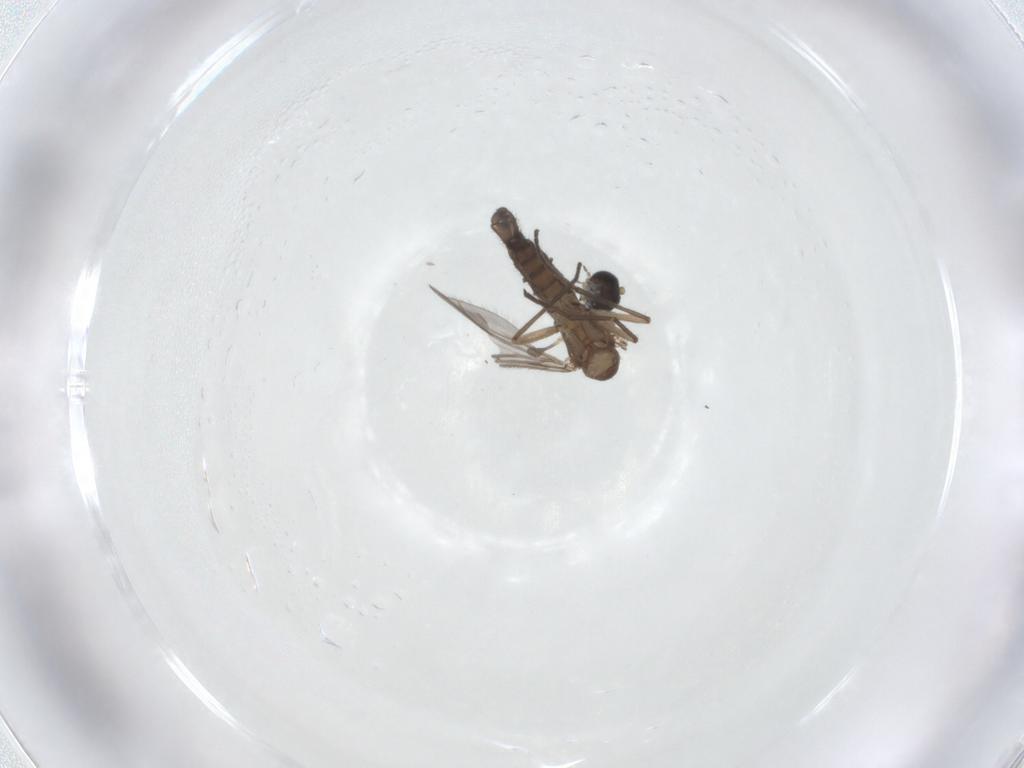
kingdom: Animalia
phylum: Arthropoda
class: Insecta
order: Diptera
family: Sciaridae
